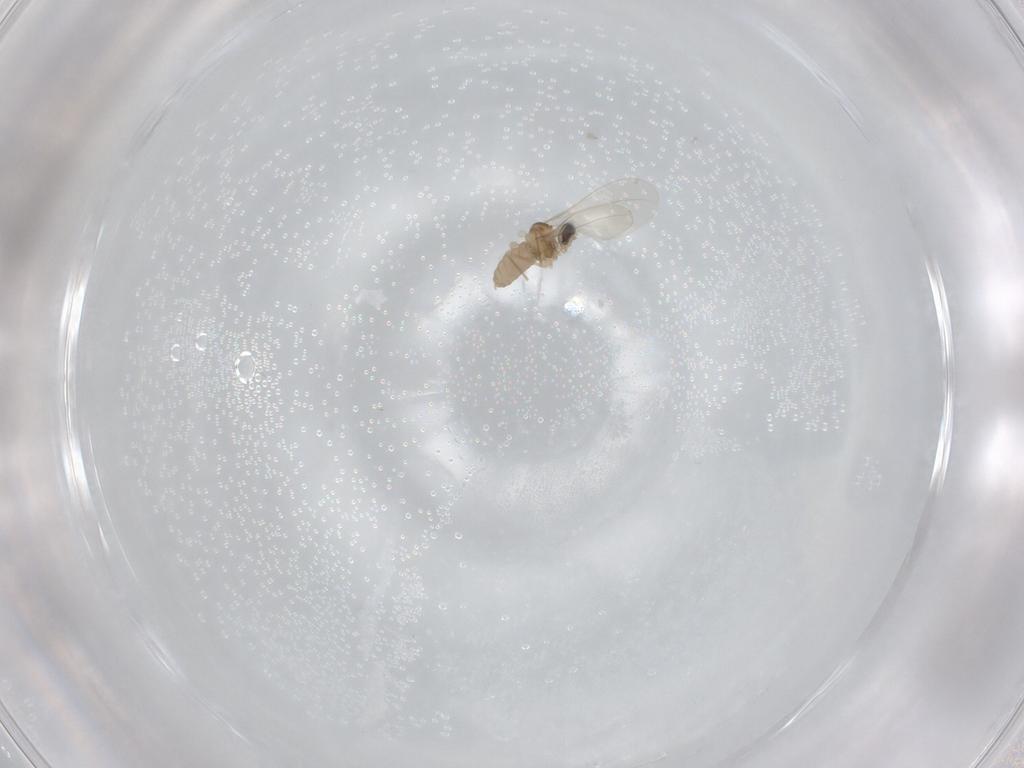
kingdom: Animalia
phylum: Arthropoda
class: Insecta
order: Diptera
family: Cecidomyiidae
